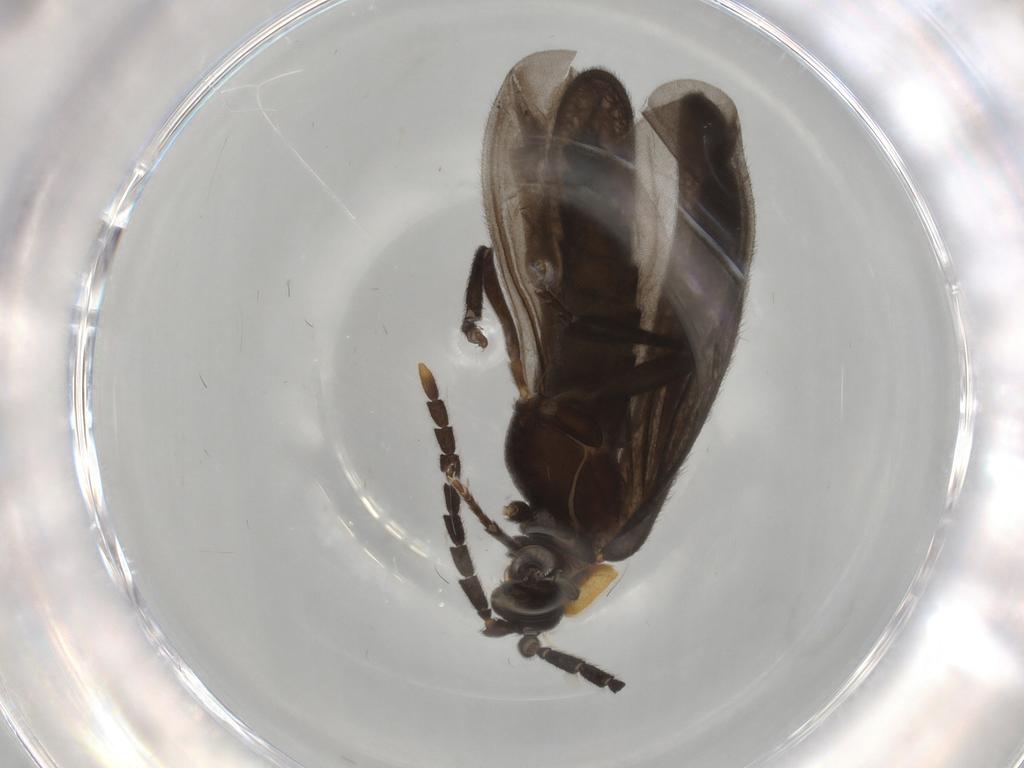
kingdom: Animalia
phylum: Arthropoda
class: Insecta
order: Coleoptera
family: Lycidae
